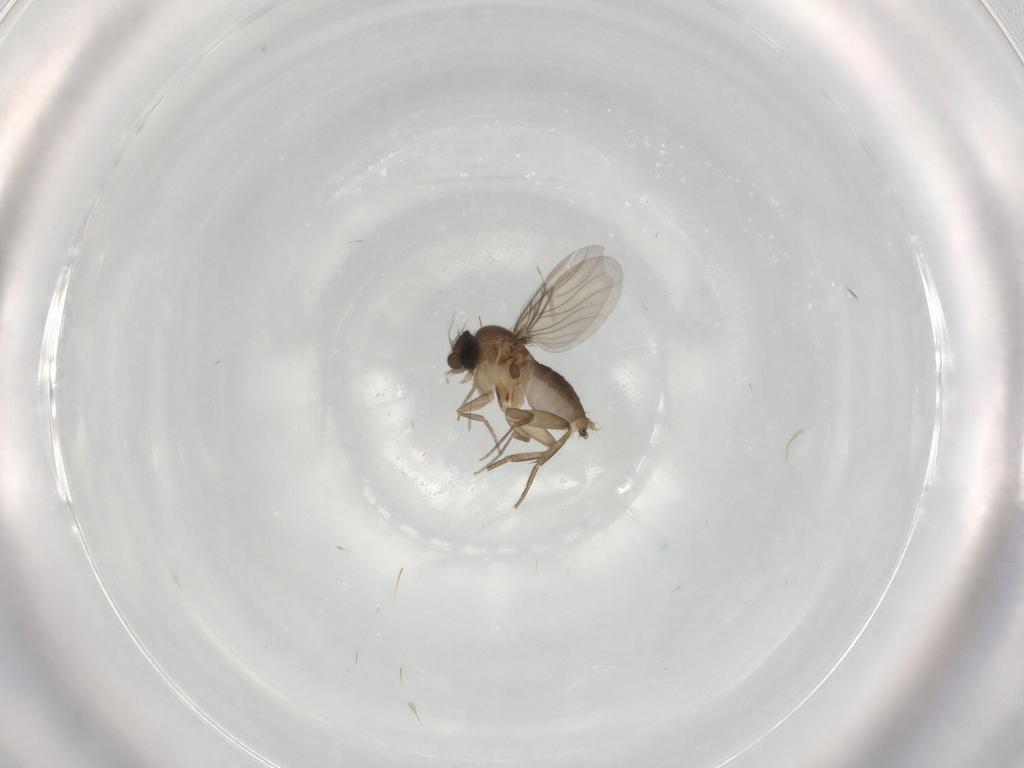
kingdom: Animalia
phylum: Arthropoda
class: Insecta
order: Diptera
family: Phoridae
